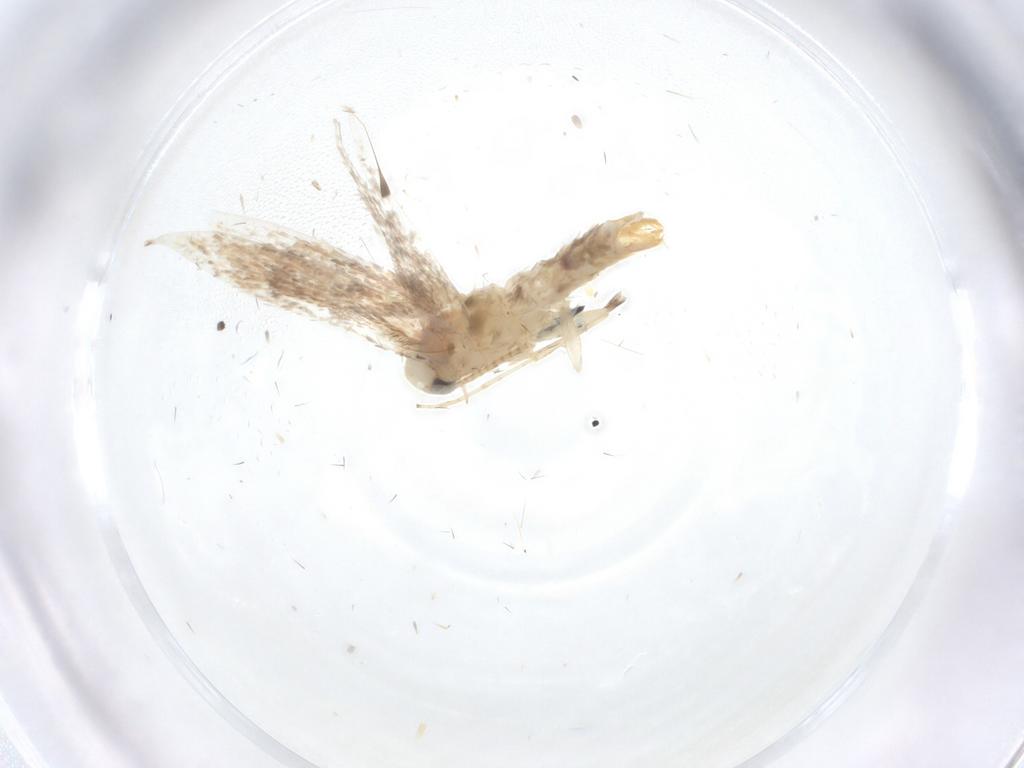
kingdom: Animalia
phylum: Arthropoda
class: Insecta
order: Lepidoptera
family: Gracillariidae
